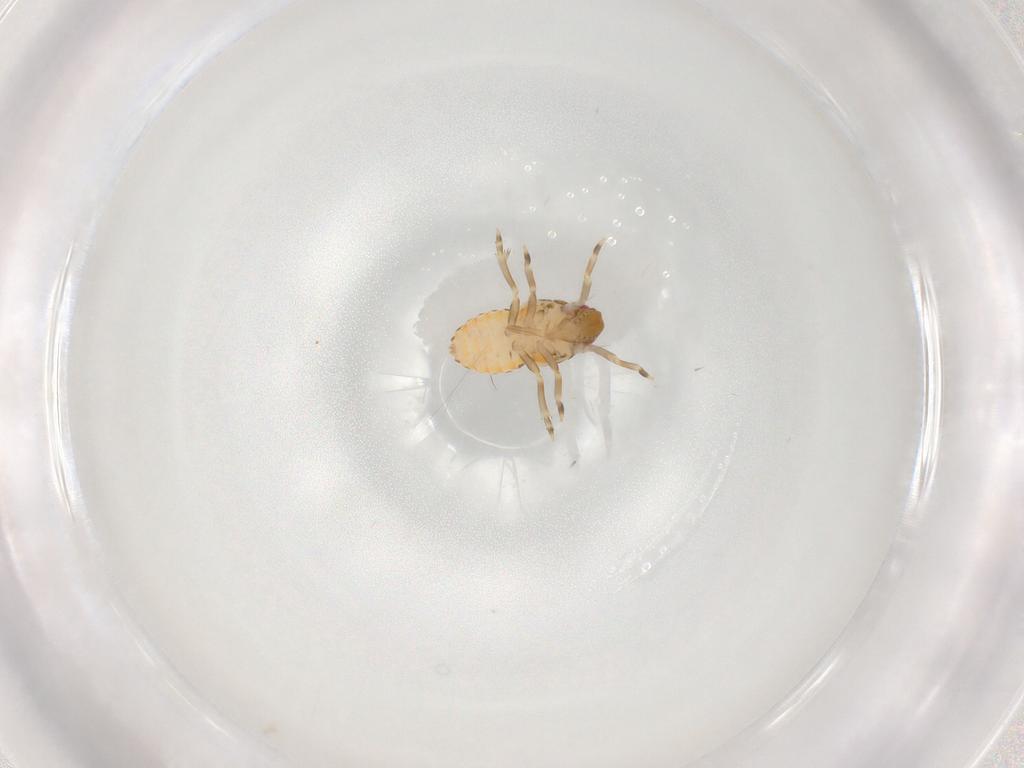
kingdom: Animalia
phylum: Arthropoda
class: Insecta
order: Hemiptera
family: Flatidae
